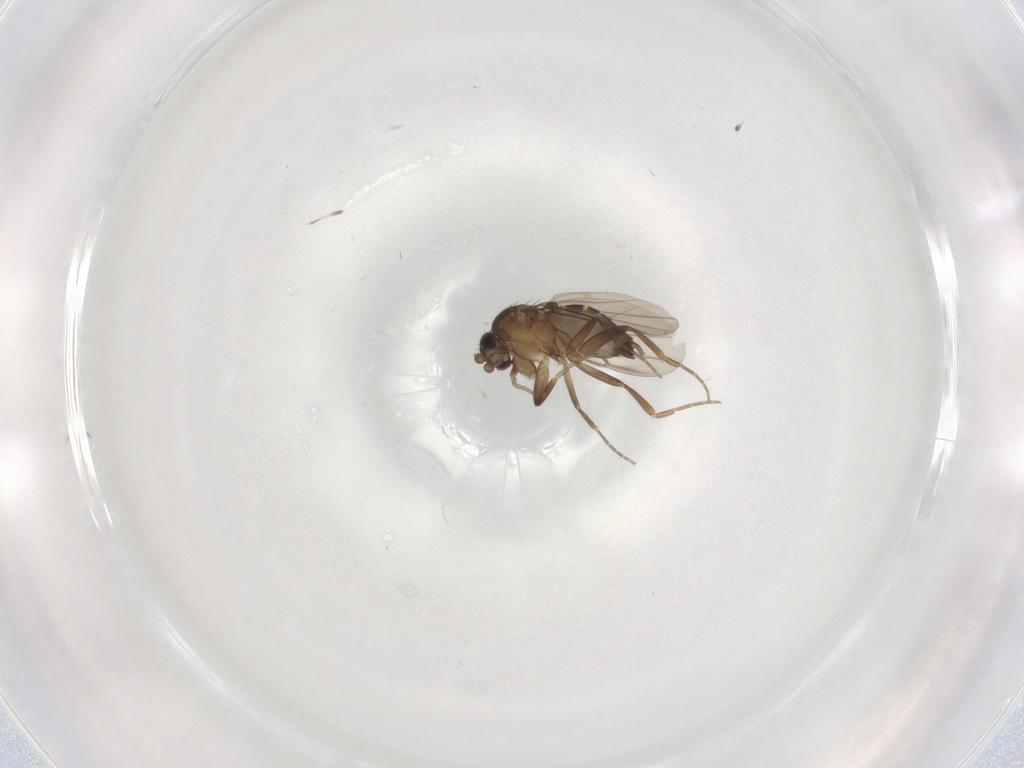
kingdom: Animalia
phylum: Arthropoda
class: Insecta
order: Diptera
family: Phoridae
